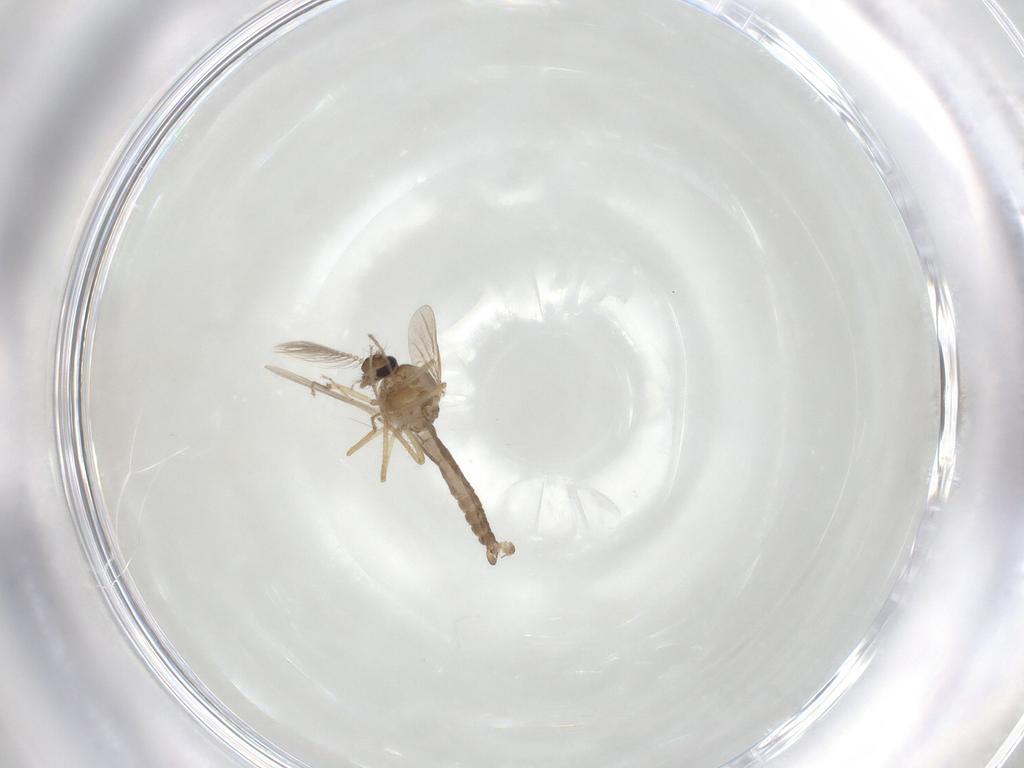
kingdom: Animalia
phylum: Arthropoda
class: Insecta
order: Diptera
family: Ceratopogonidae
